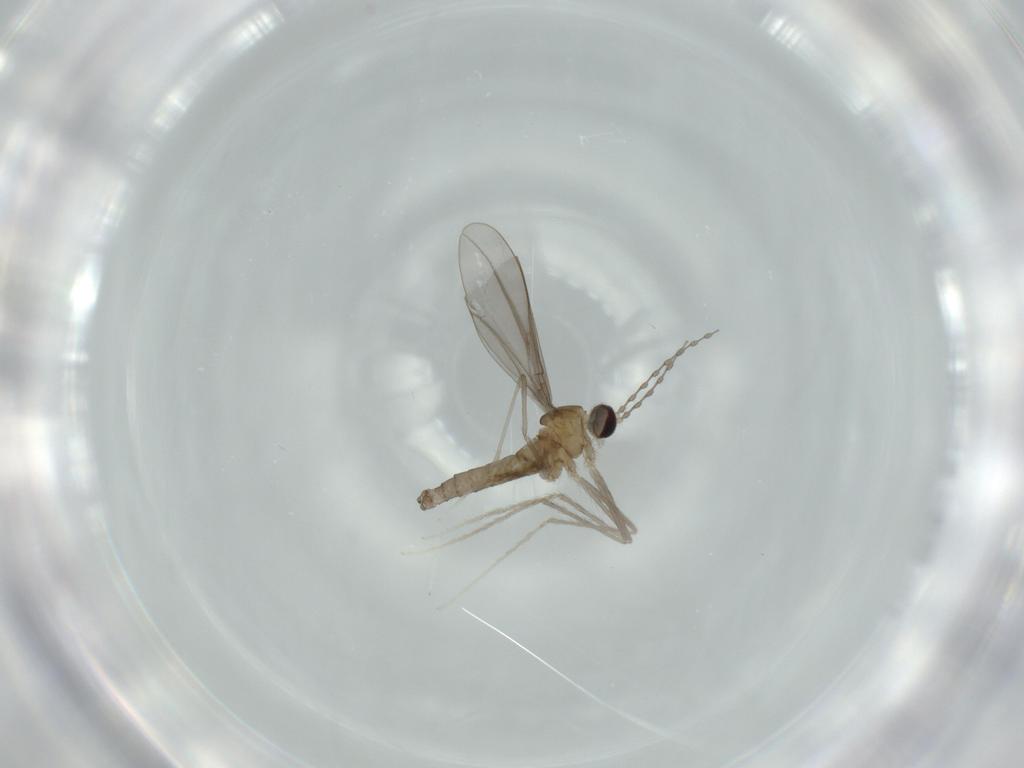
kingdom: Animalia
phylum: Arthropoda
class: Insecta
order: Diptera
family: Cecidomyiidae
